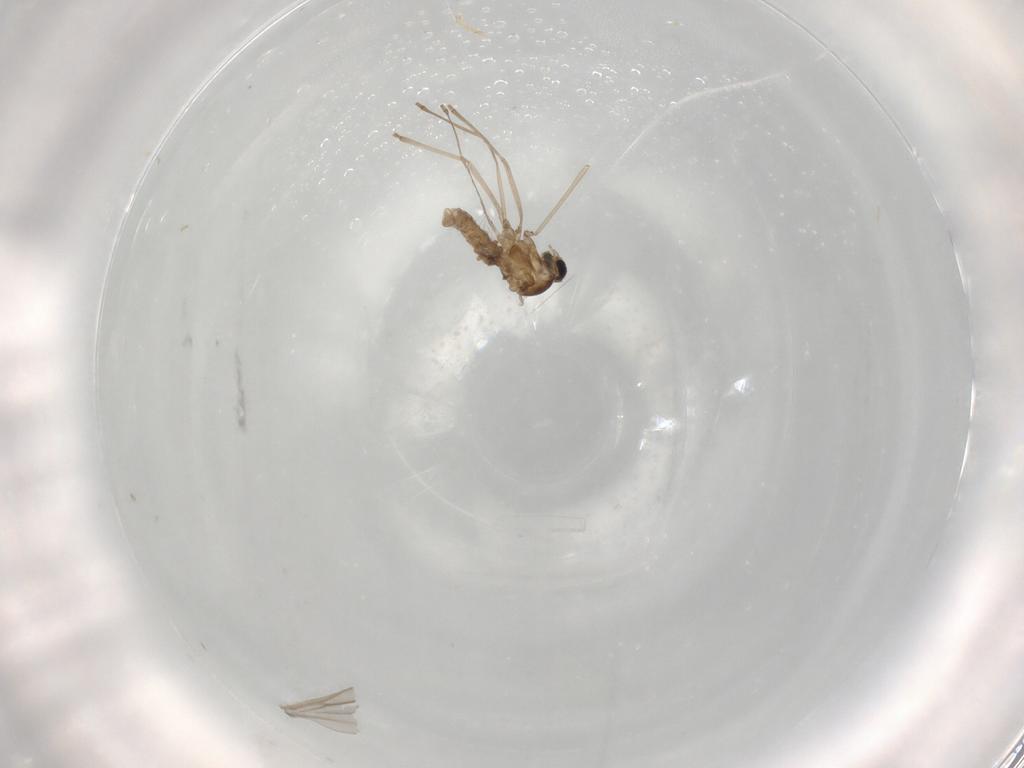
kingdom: Animalia
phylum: Arthropoda
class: Insecta
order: Diptera
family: Cecidomyiidae
